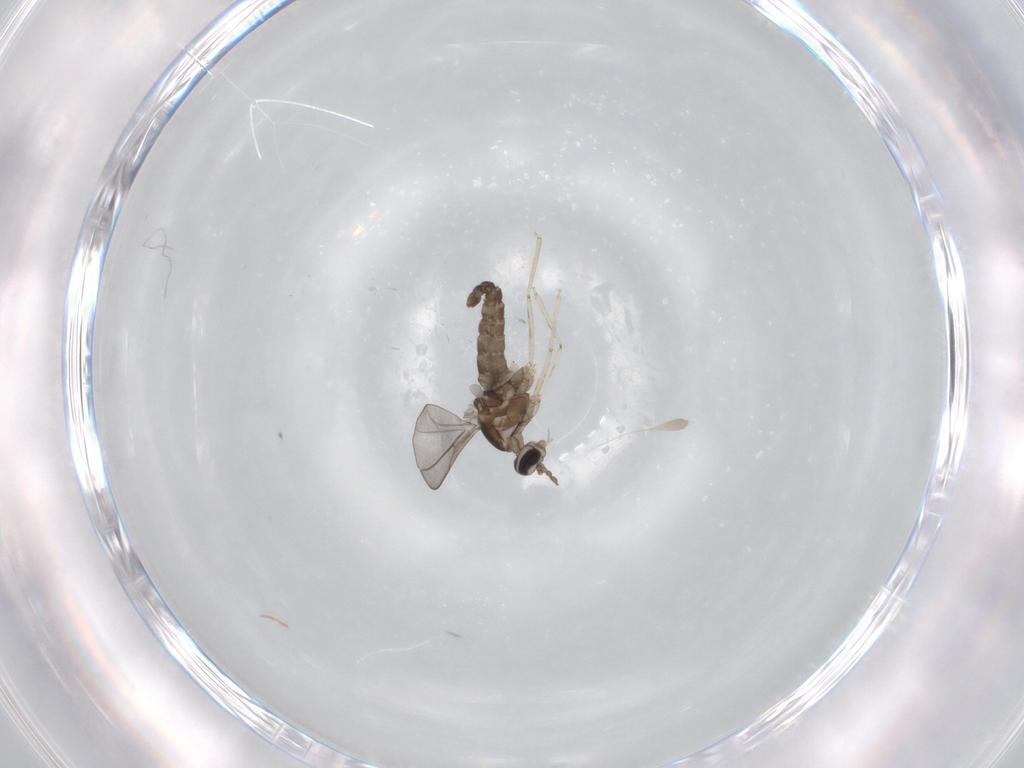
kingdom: Animalia
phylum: Arthropoda
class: Insecta
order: Diptera
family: Cecidomyiidae
